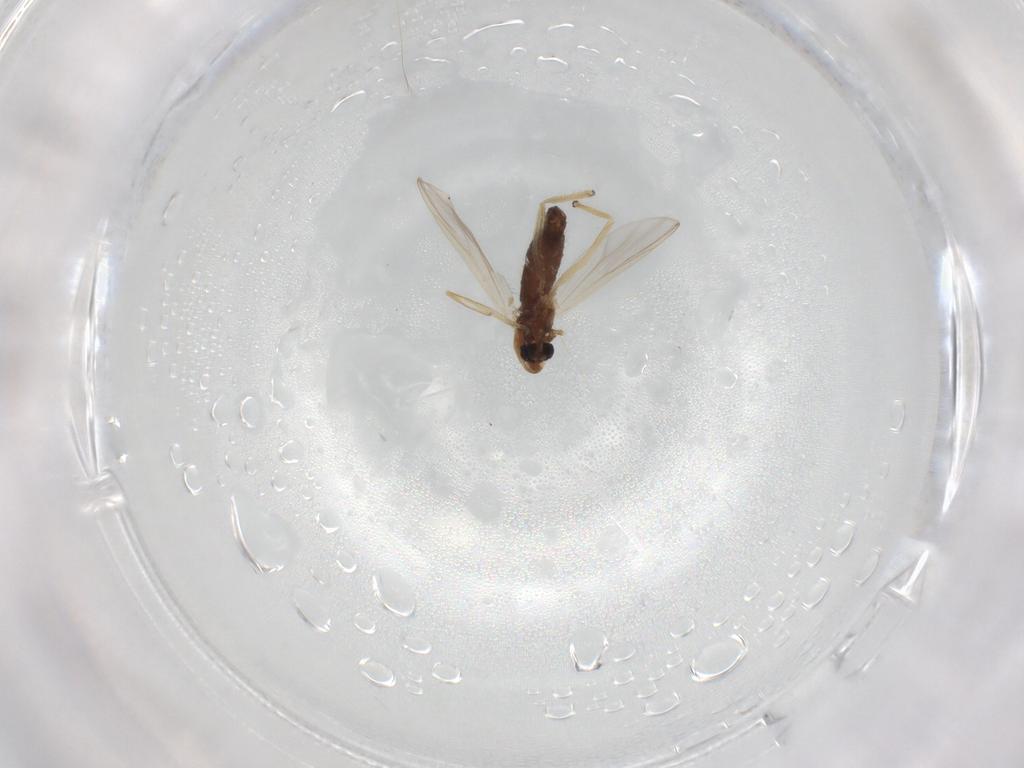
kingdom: Animalia
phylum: Arthropoda
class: Insecta
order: Diptera
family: Chironomidae
